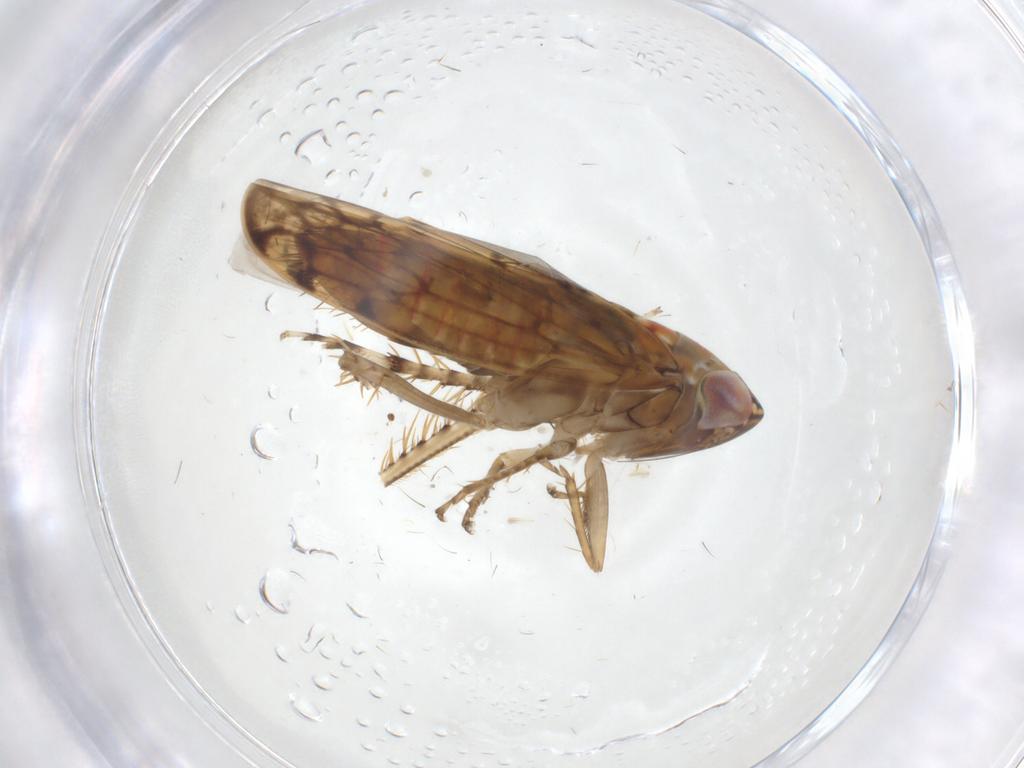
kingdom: Animalia
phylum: Arthropoda
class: Insecta
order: Hemiptera
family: Cicadellidae
